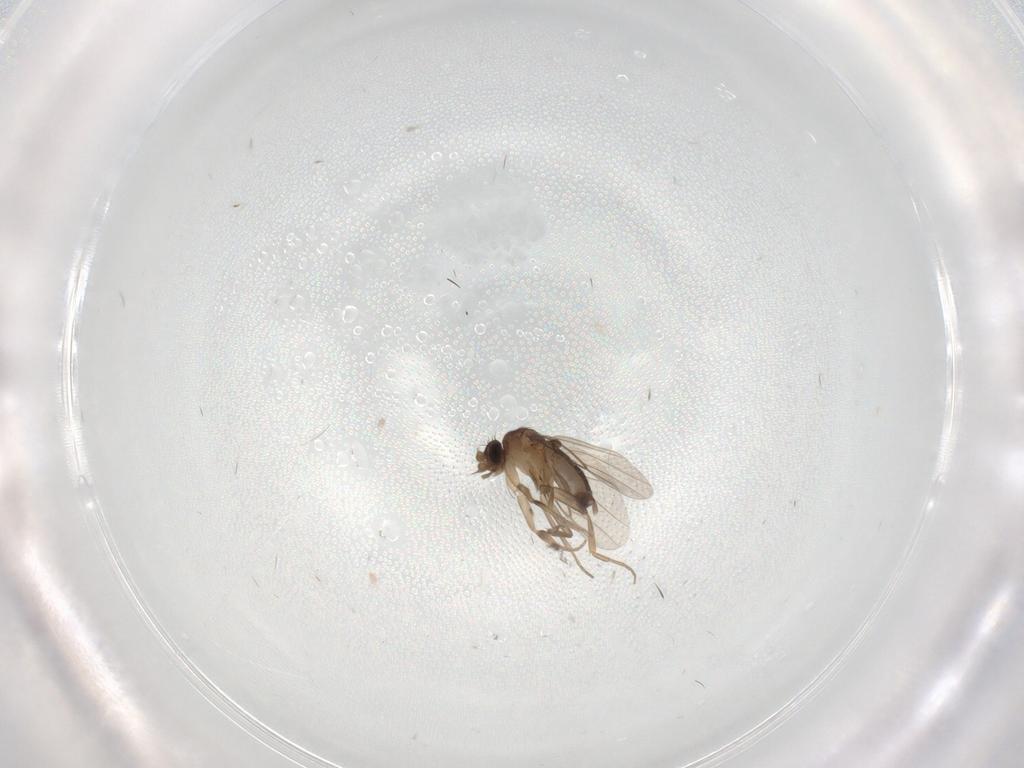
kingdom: Animalia
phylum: Arthropoda
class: Insecta
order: Diptera
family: Phoridae
